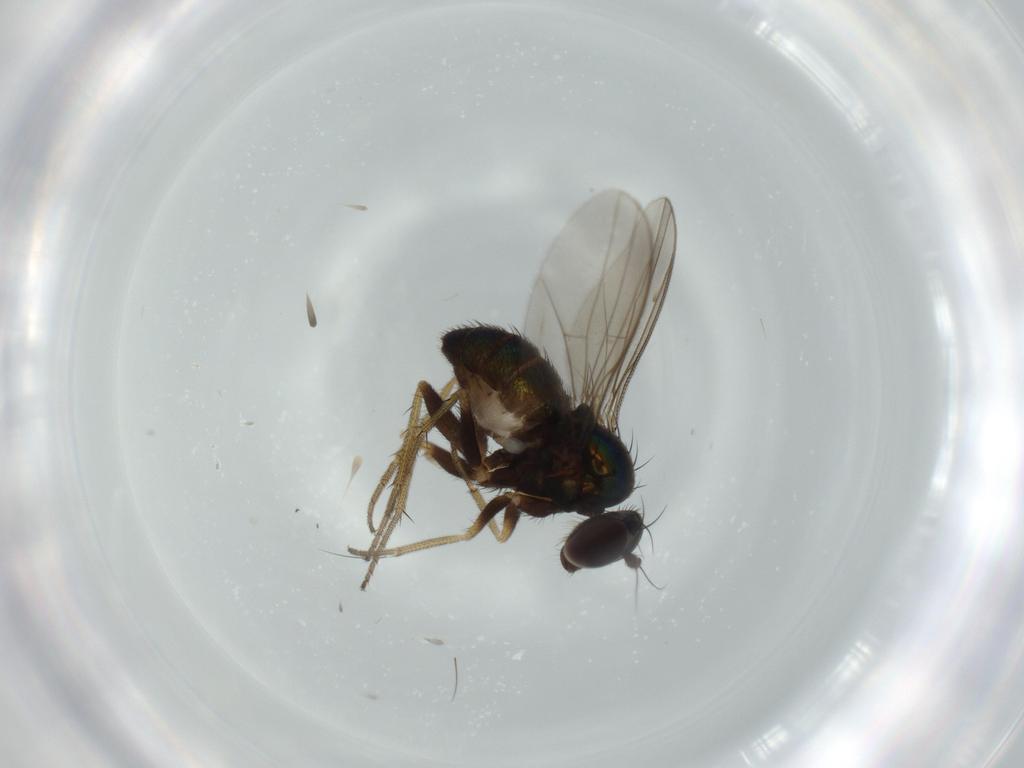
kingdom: Animalia
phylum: Arthropoda
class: Insecta
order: Diptera
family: Dolichopodidae
